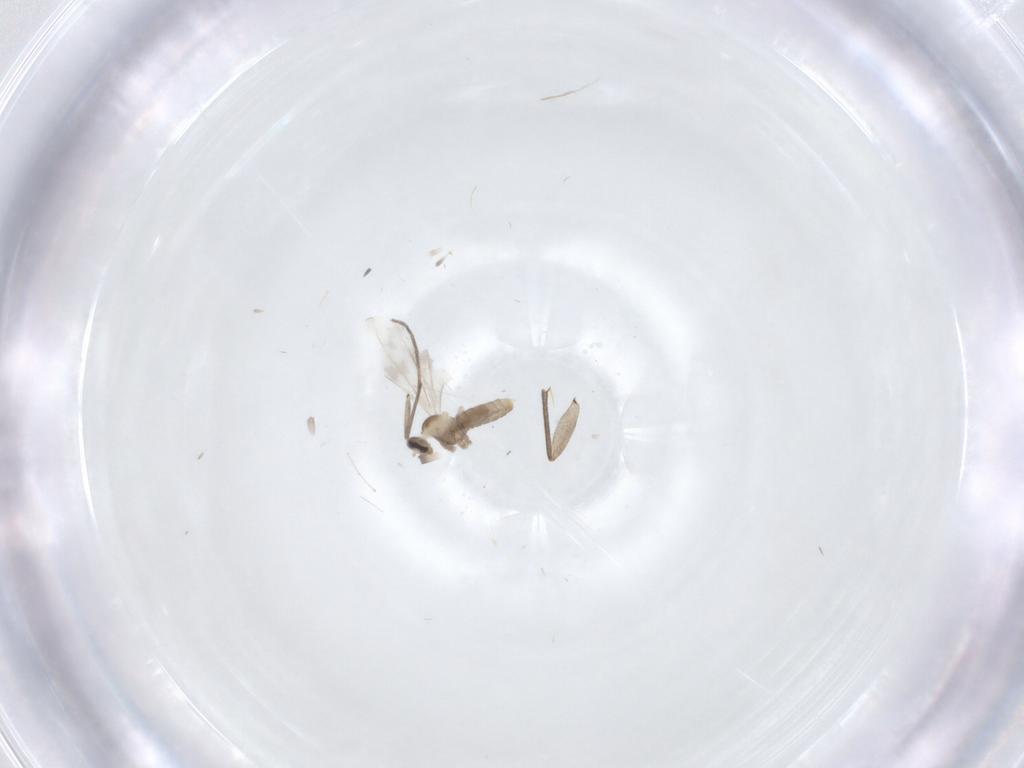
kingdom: Animalia
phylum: Arthropoda
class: Insecta
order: Diptera
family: Sciaridae
